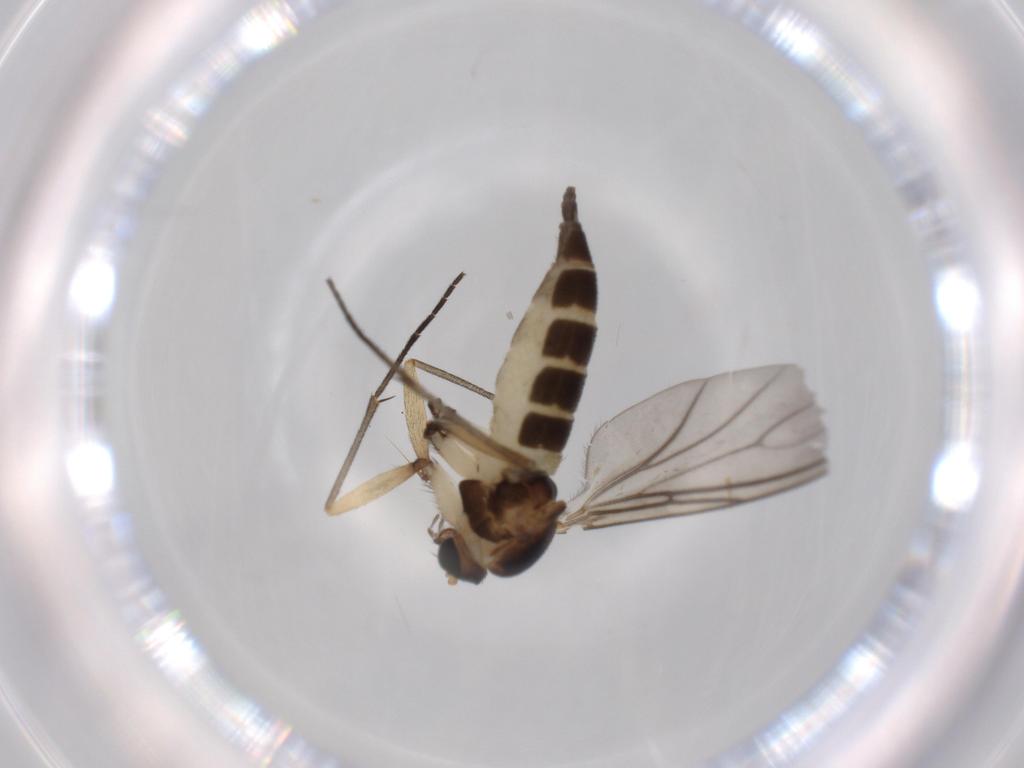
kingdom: Animalia
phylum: Arthropoda
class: Insecta
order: Diptera
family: Sciaridae
